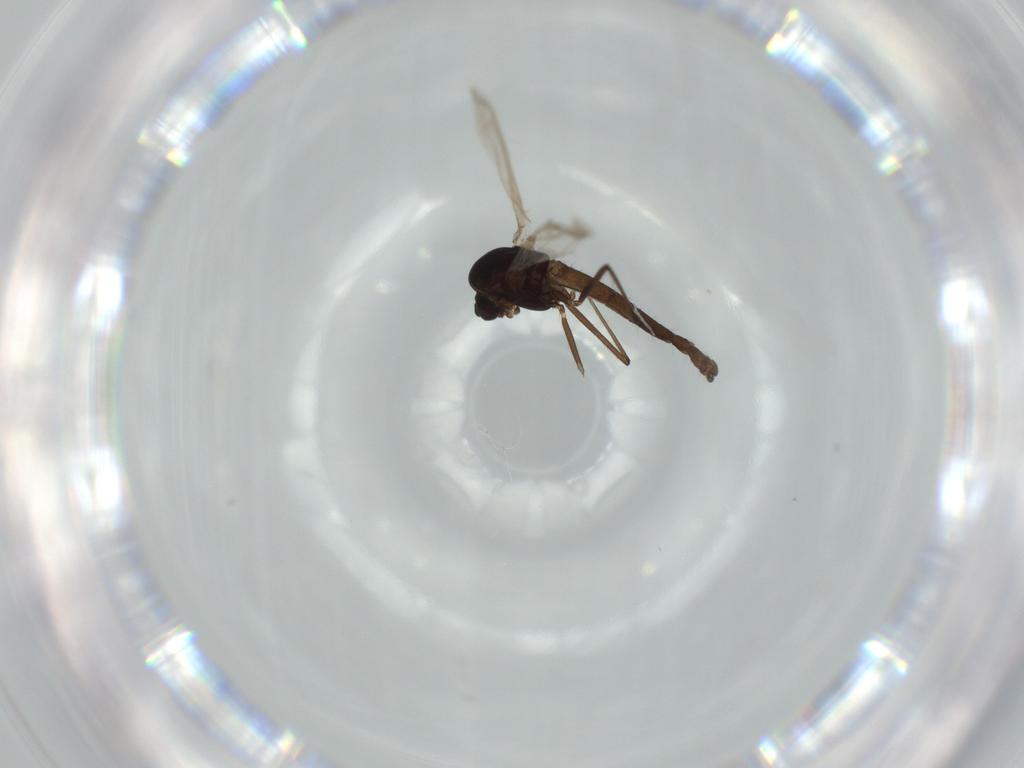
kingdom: Animalia
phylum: Arthropoda
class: Insecta
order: Diptera
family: Chironomidae
